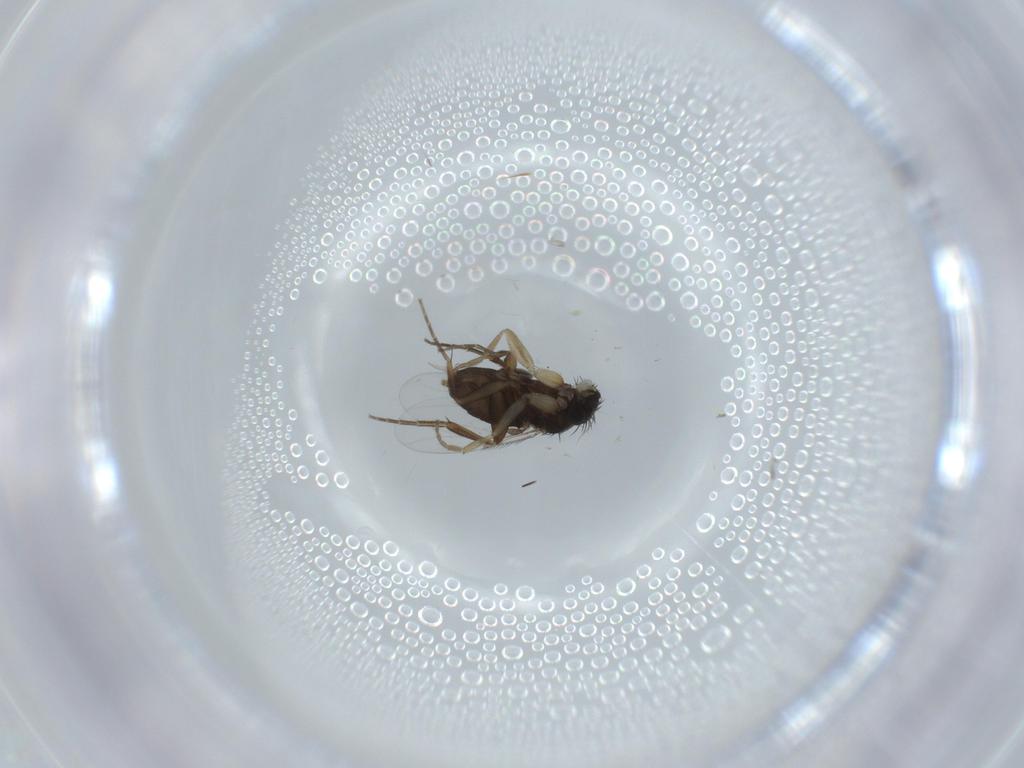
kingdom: Animalia
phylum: Arthropoda
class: Insecta
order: Diptera
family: Phoridae
